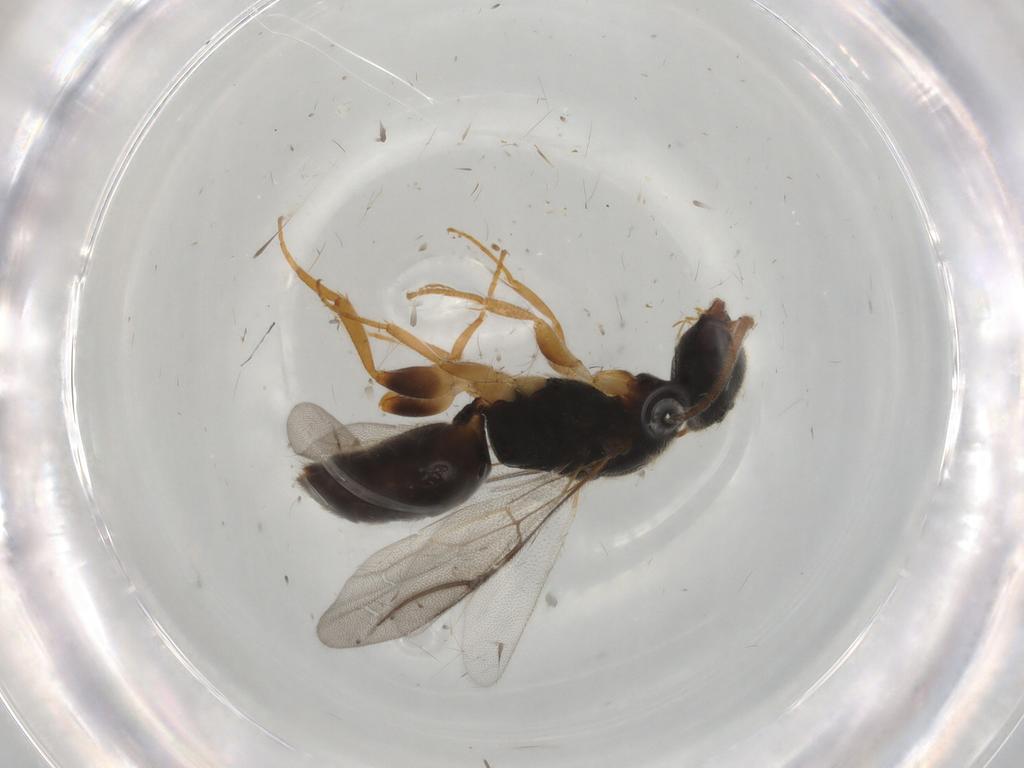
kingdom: Animalia
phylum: Arthropoda
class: Insecta
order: Hymenoptera
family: Bethylidae
